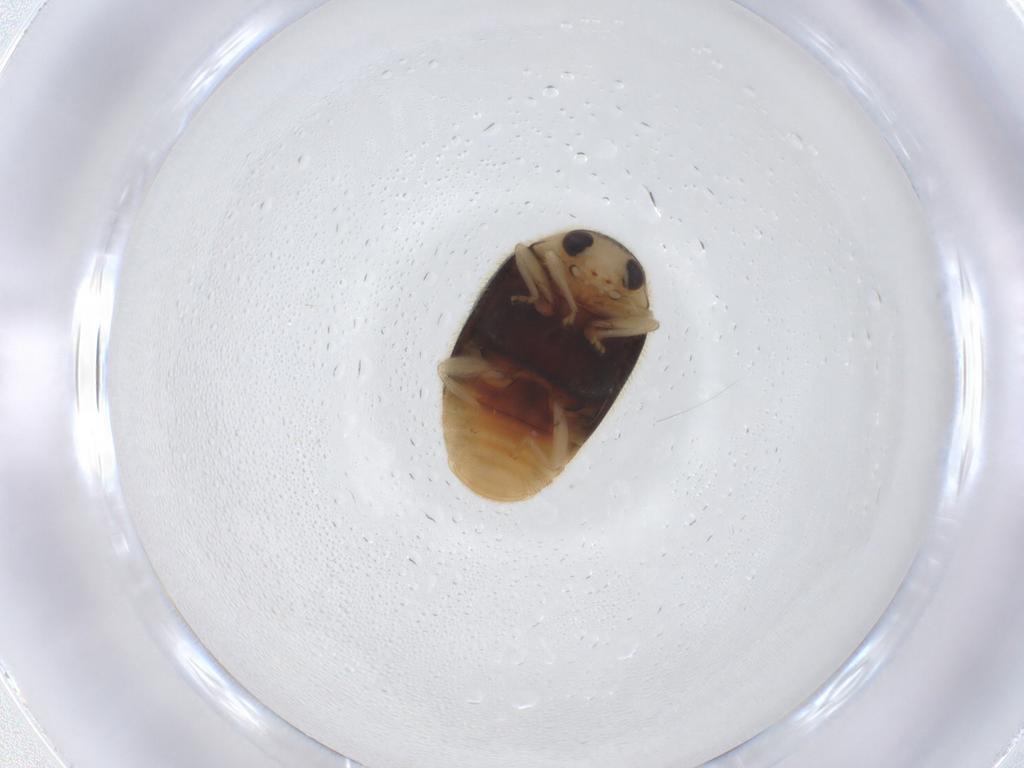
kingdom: Animalia
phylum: Arthropoda
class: Insecta
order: Coleoptera
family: Coccinellidae
